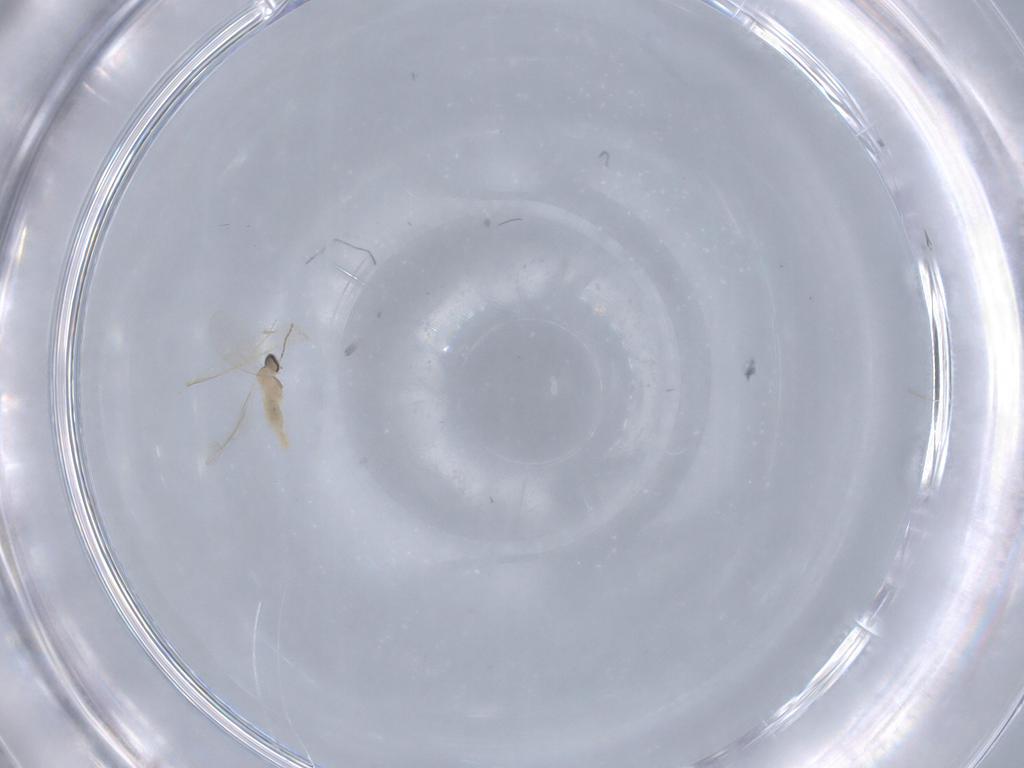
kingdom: Animalia
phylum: Arthropoda
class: Insecta
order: Diptera
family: Cecidomyiidae
